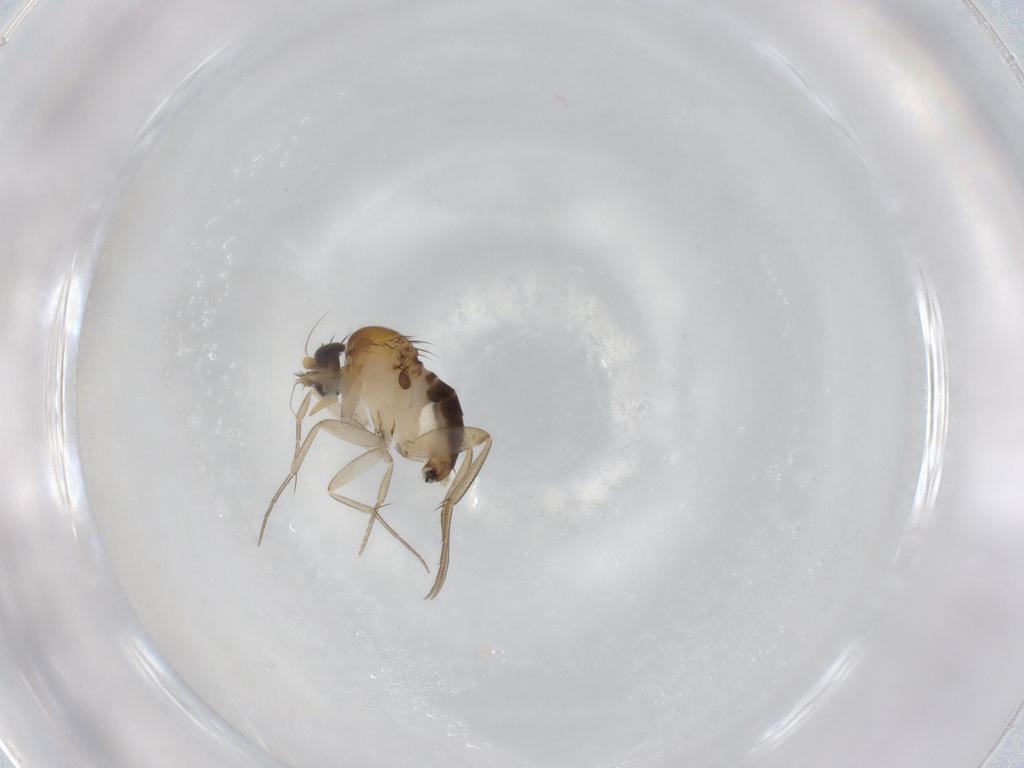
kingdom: Animalia
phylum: Arthropoda
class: Insecta
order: Diptera
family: Phoridae
